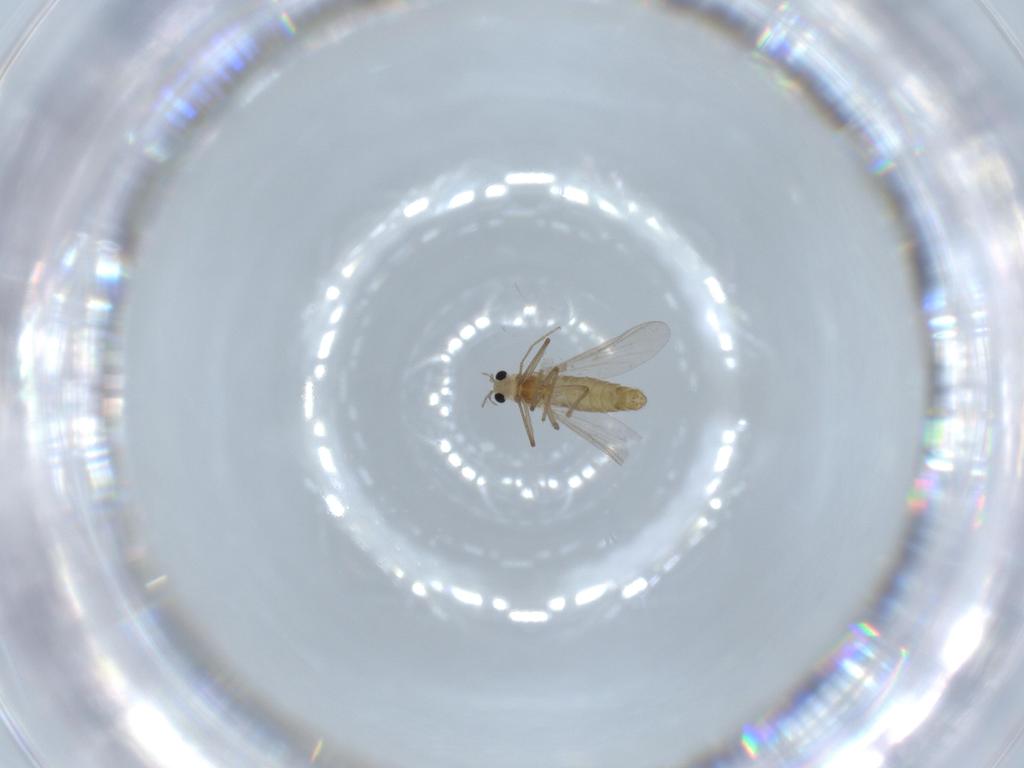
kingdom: Animalia
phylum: Arthropoda
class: Insecta
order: Diptera
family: Chironomidae
